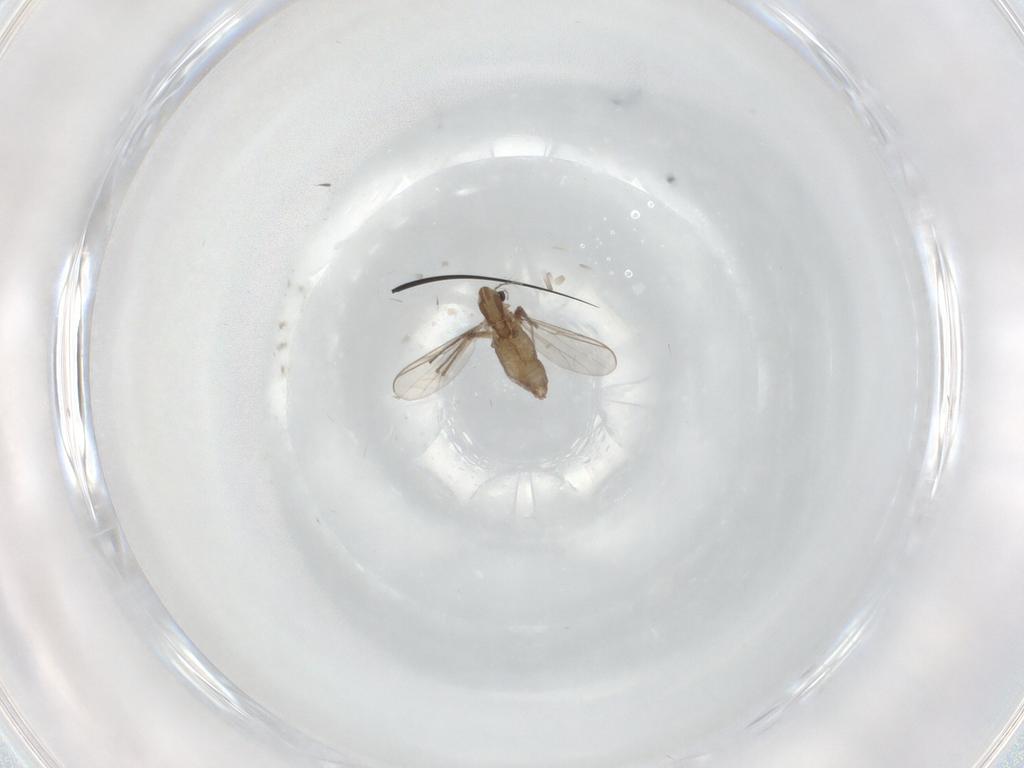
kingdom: Animalia
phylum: Arthropoda
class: Insecta
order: Diptera
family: Chironomidae
